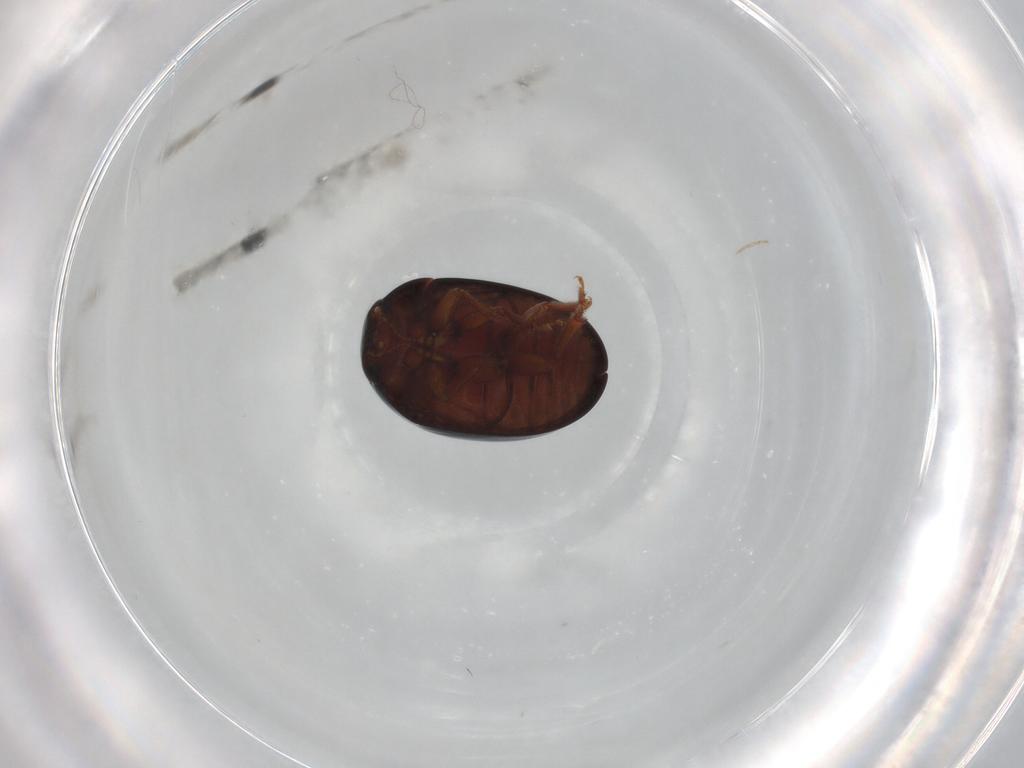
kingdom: Animalia
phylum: Arthropoda
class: Insecta
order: Coleoptera
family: Phalacridae
